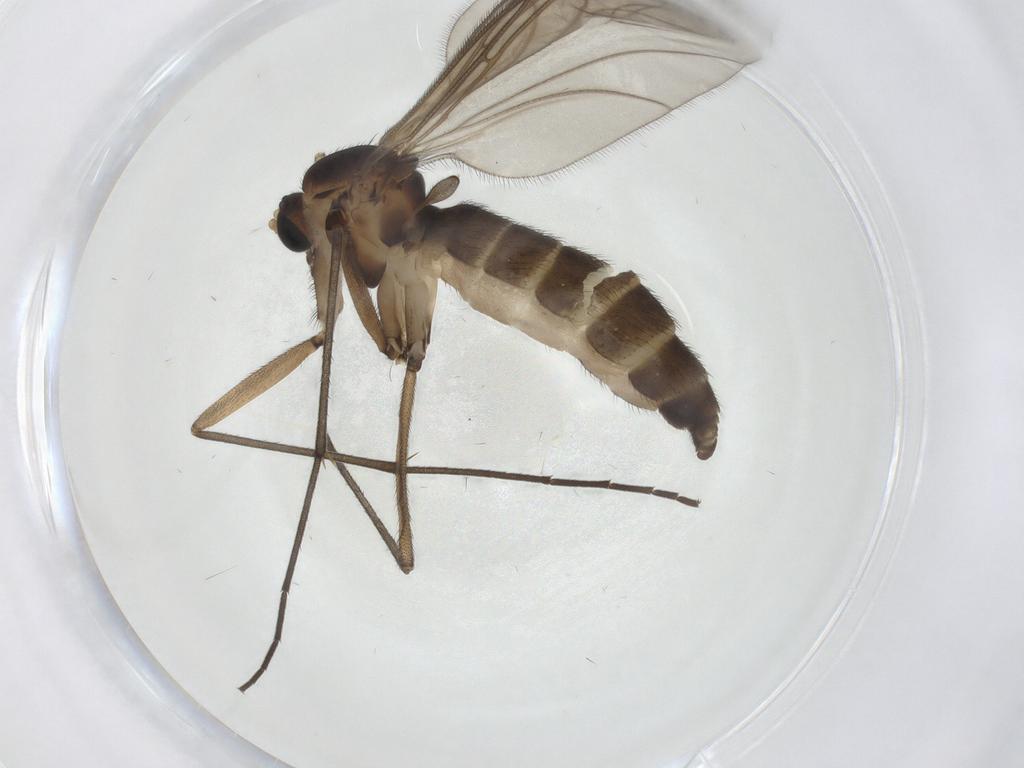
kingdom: Animalia
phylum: Arthropoda
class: Insecta
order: Diptera
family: Sciaridae
